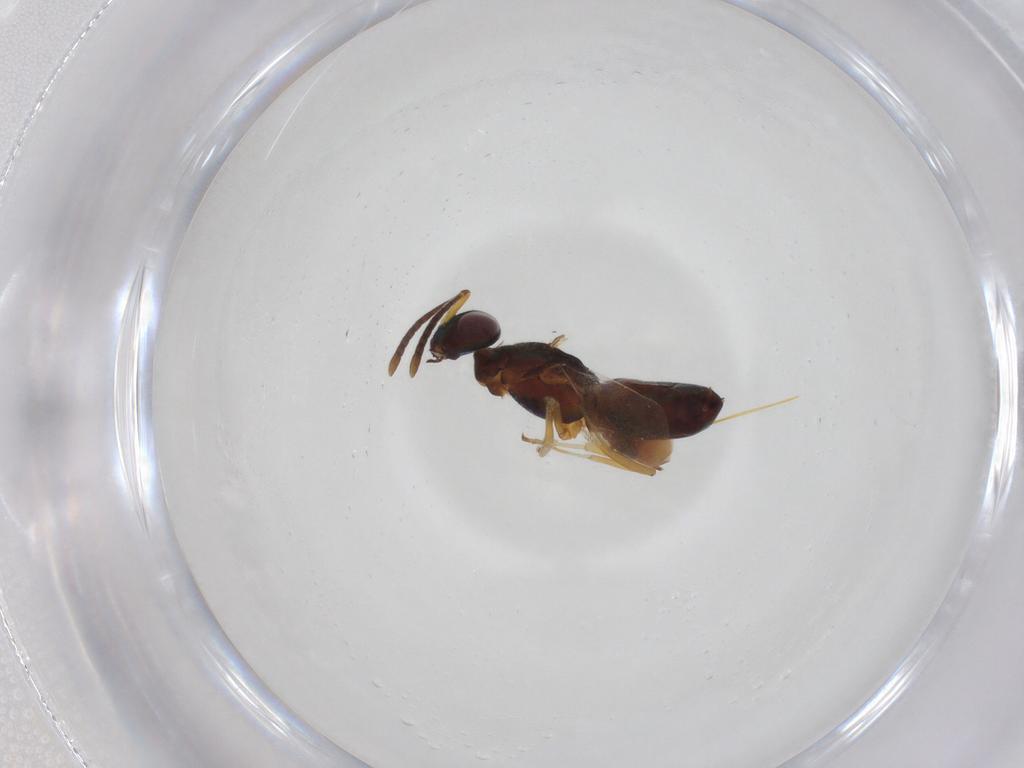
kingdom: Animalia
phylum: Arthropoda
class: Insecta
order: Hymenoptera
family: Eupelmidae
